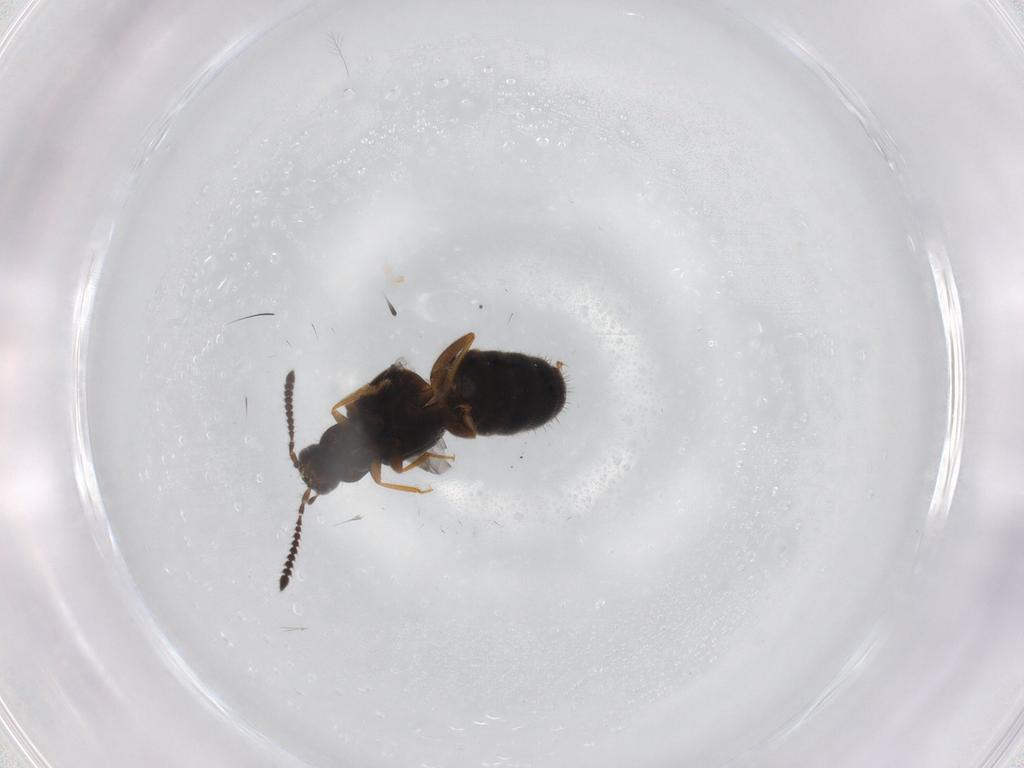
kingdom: Animalia
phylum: Arthropoda
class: Insecta
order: Coleoptera
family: Staphylinidae
